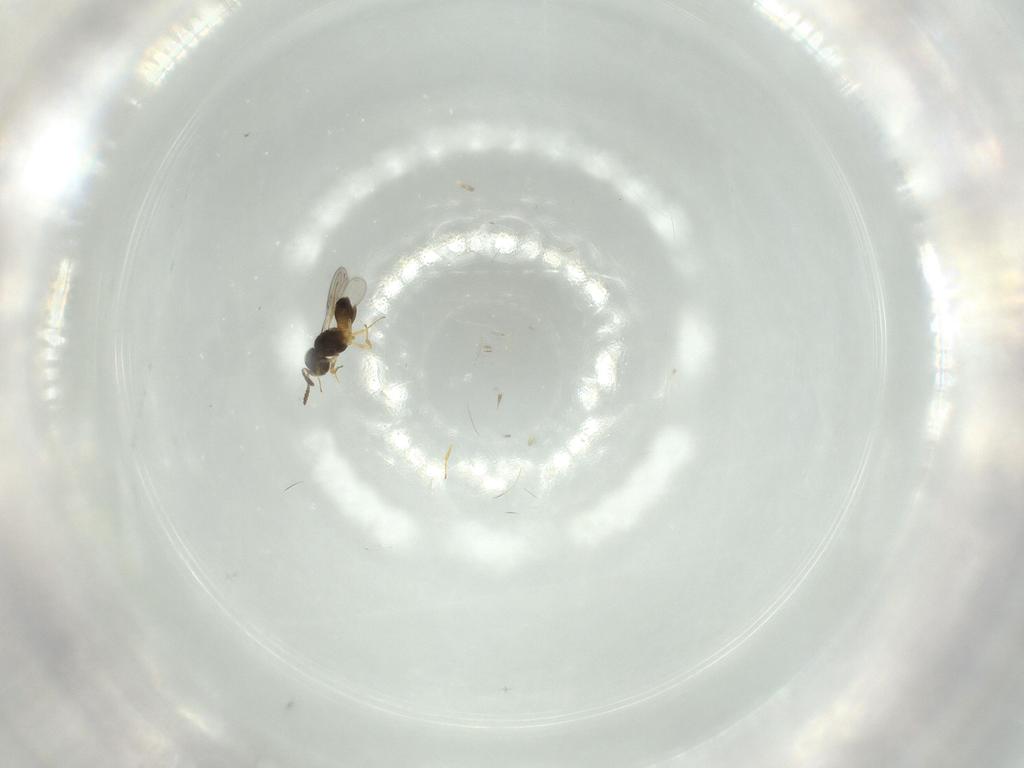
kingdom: Animalia
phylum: Arthropoda
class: Insecta
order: Hymenoptera
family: Scelionidae
